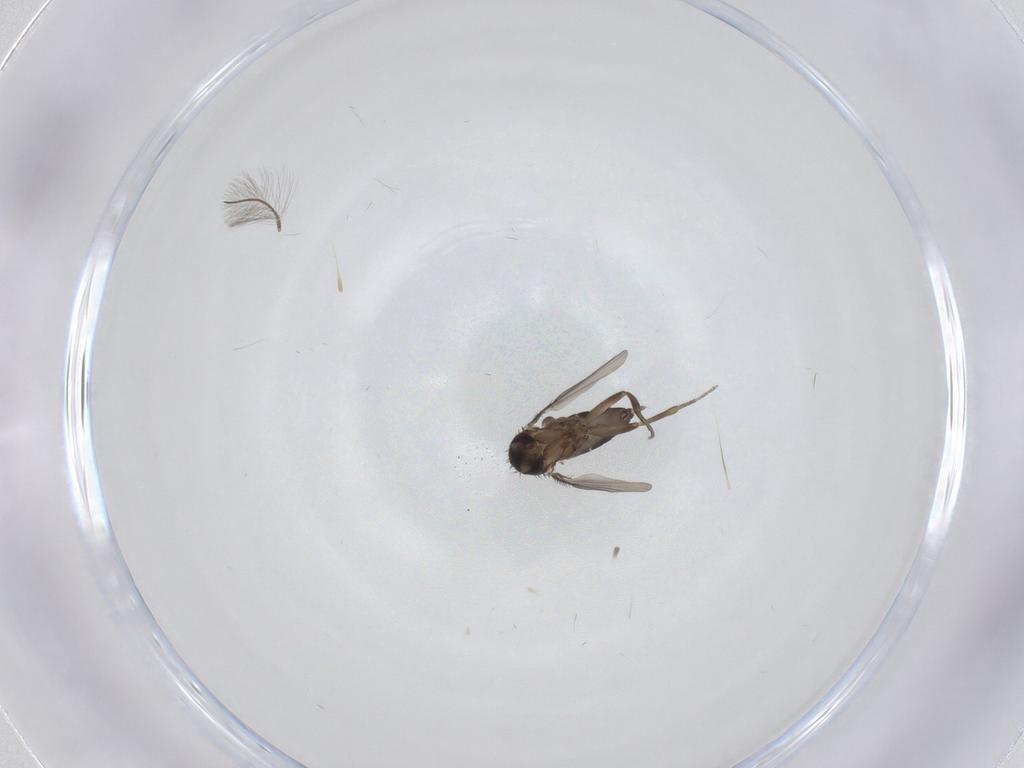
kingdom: Animalia
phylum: Arthropoda
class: Insecta
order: Diptera
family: Phoridae
